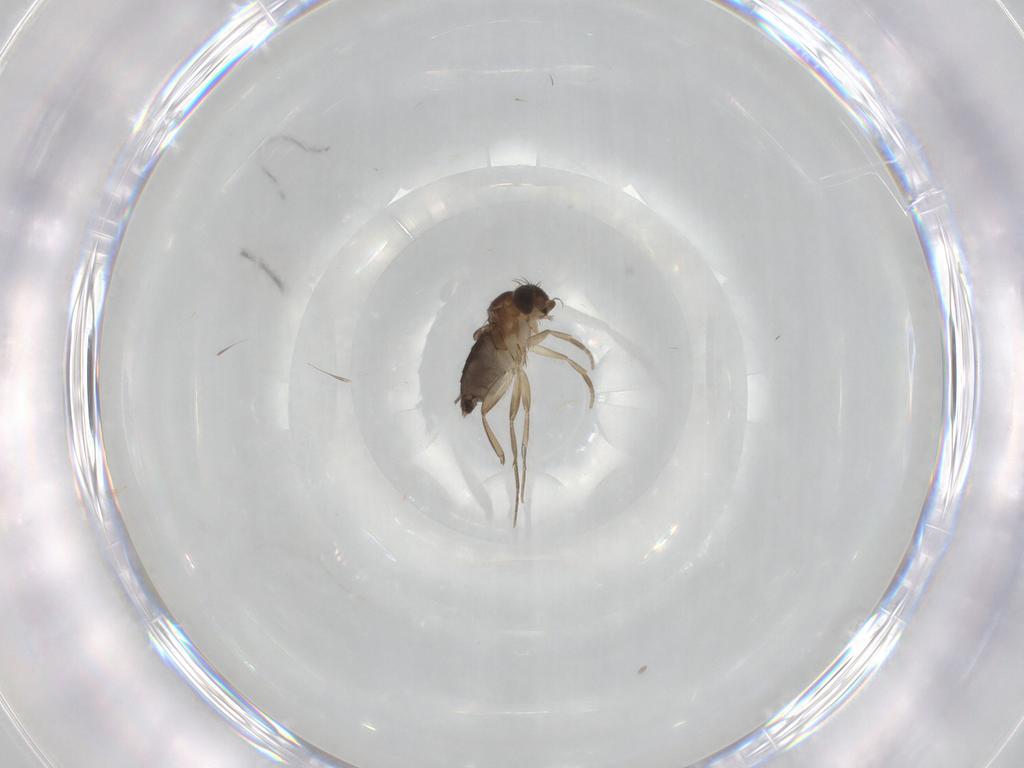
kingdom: Animalia
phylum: Arthropoda
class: Insecta
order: Diptera
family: Phoridae
